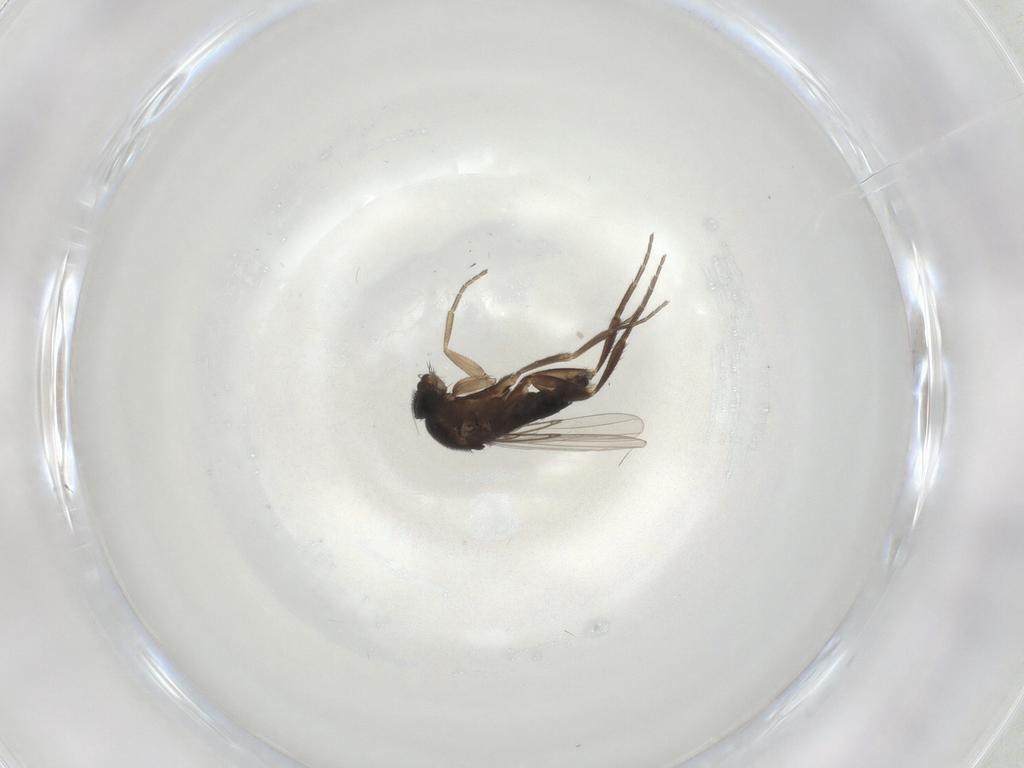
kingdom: Animalia
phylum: Arthropoda
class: Insecta
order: Diptera
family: Phoridae
